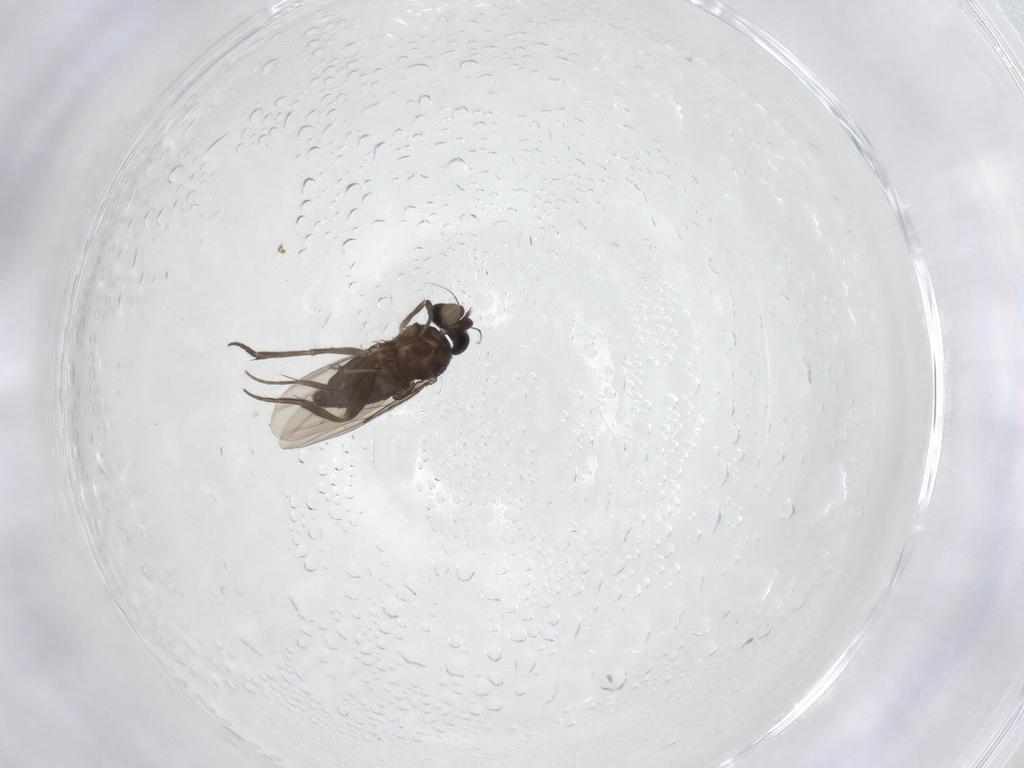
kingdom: Animalia
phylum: Arthropoda
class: Insecta
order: Diptera
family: Phoridae
